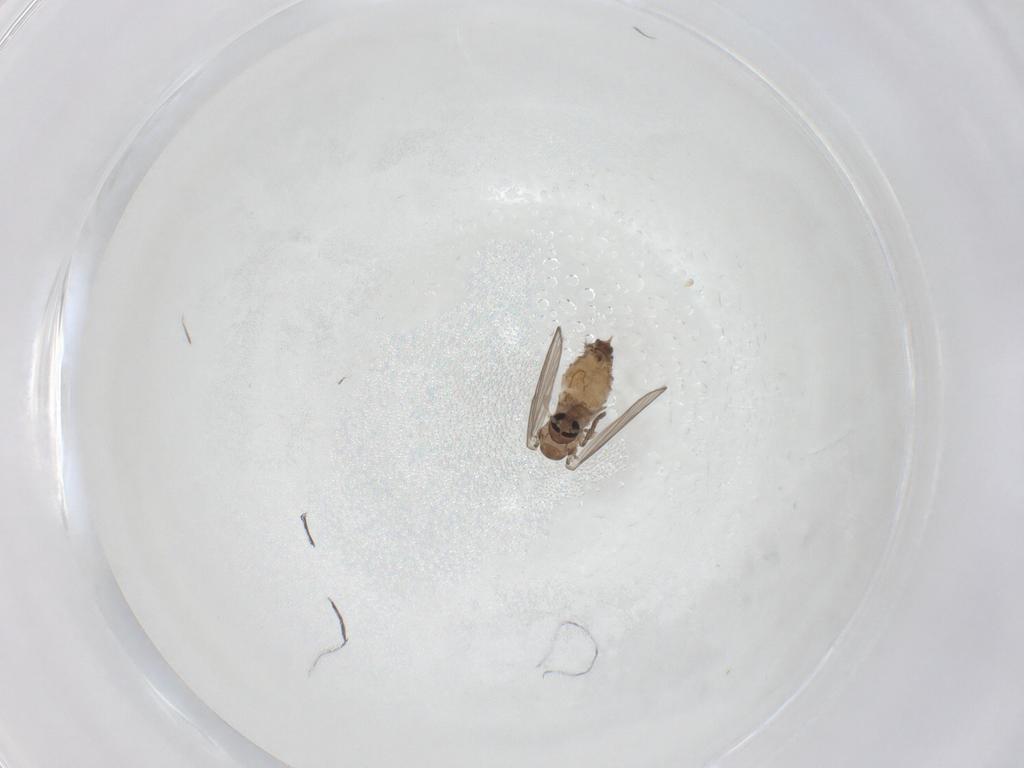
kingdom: Animalia
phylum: Arthropoda
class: Insecta
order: Diptera
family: Psychodidae
